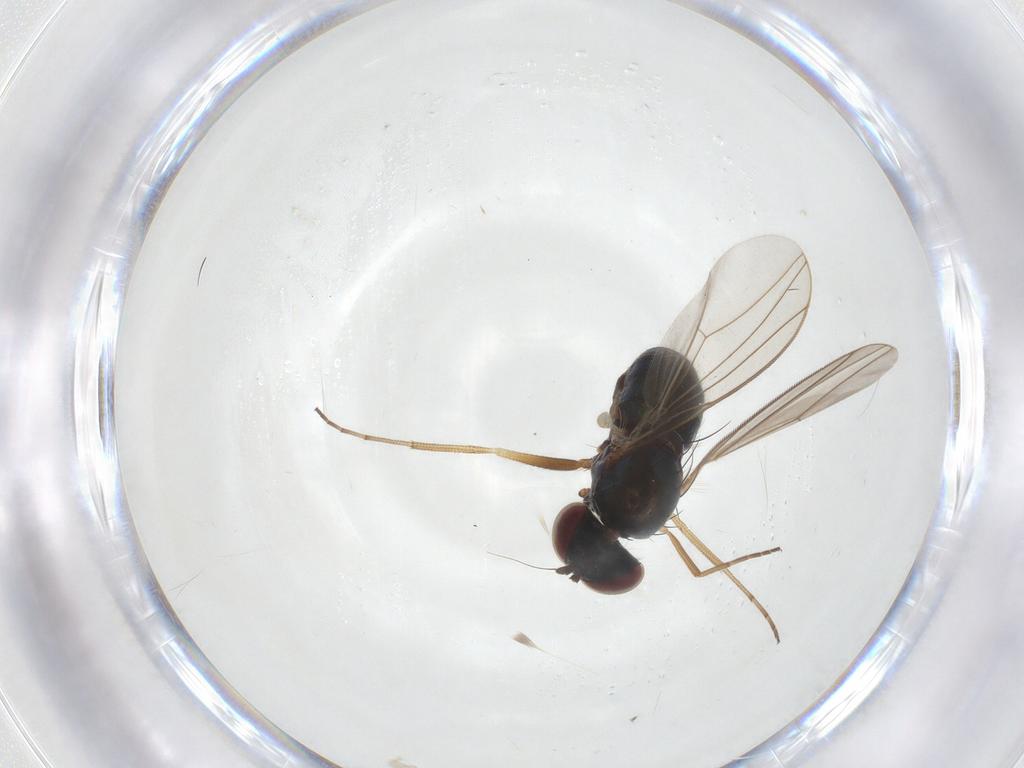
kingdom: Animalia
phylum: Arthropoda
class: Insecta
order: Diptera
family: Dolichopodidae
